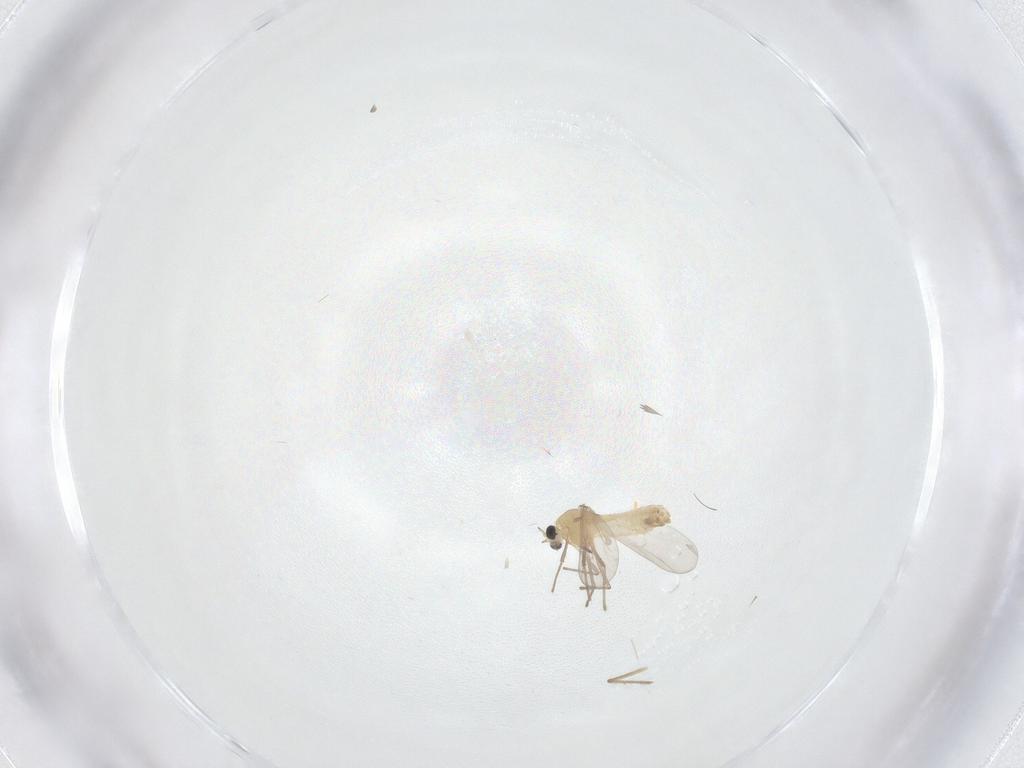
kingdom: Animalia
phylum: Arthropoda
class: Insecta
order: Diptera
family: Chironomidae
